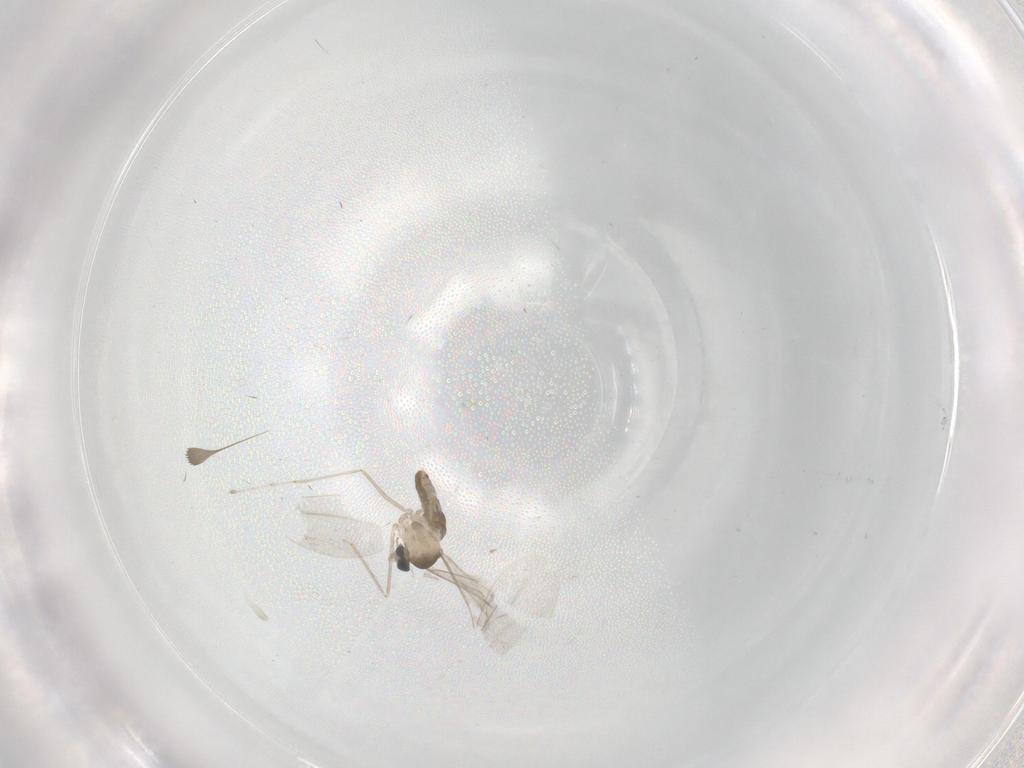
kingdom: Animalia
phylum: Arthropoda
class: Insecta
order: Diptera
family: Cecidomyiidae
